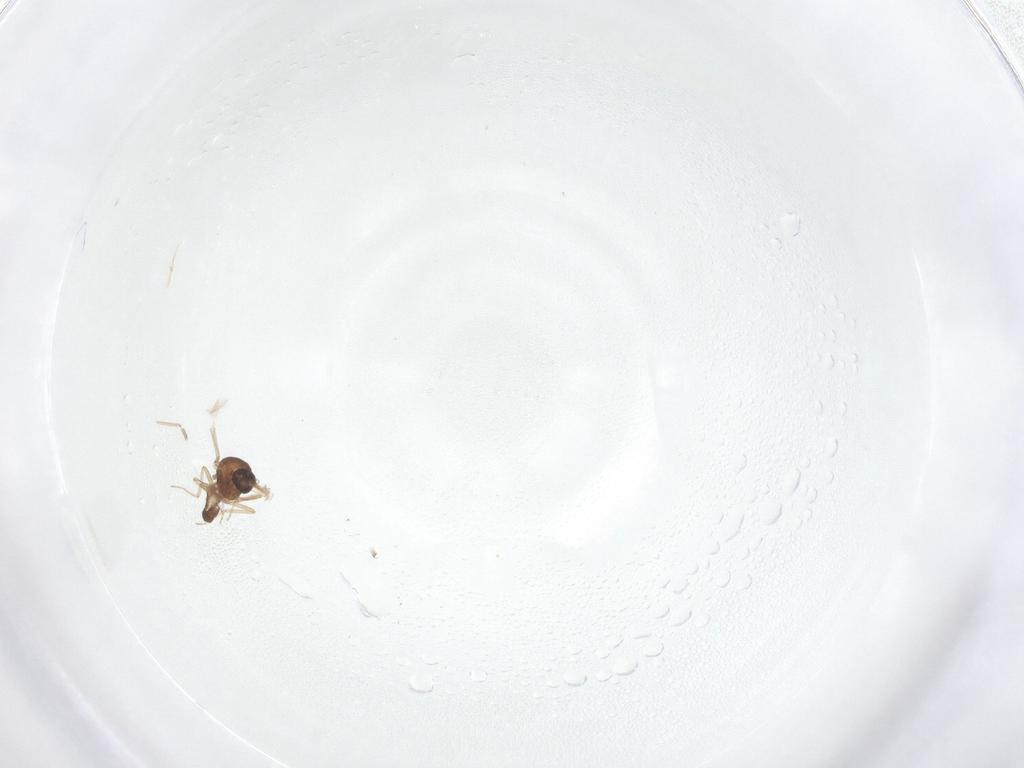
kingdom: Animalia
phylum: Arthropoda
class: Insecta
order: Diptera
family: Ceratopogonidae
